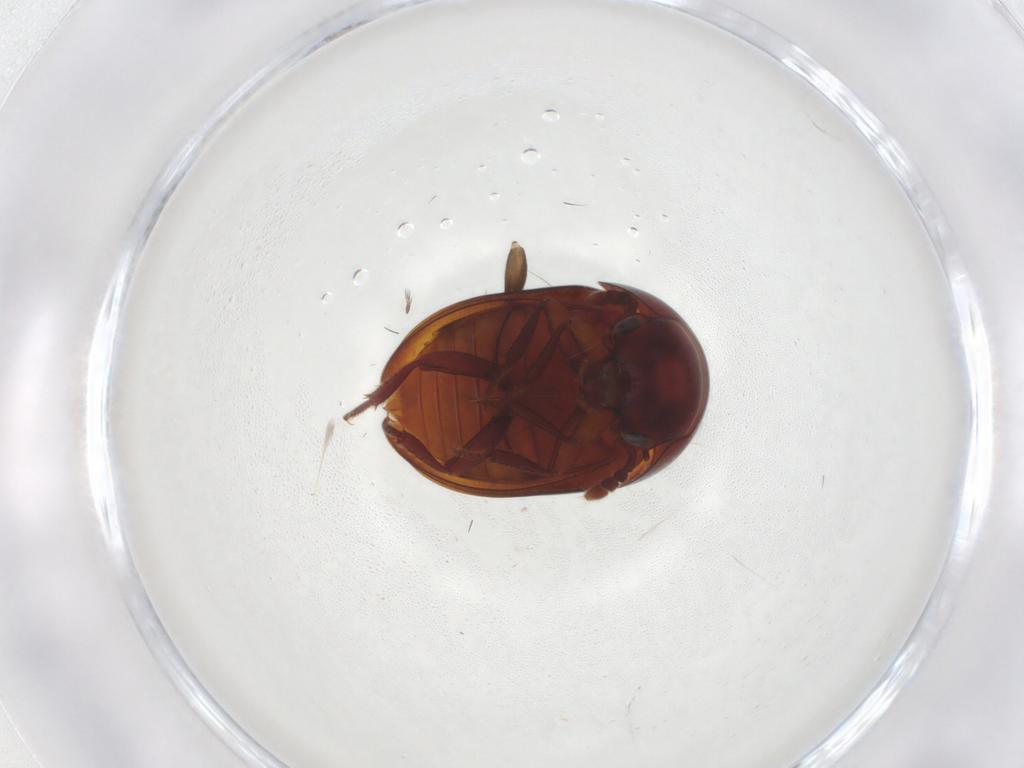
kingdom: Animalia
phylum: Arthropoda
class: Insecta
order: Coleoptera
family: Leiodidae
